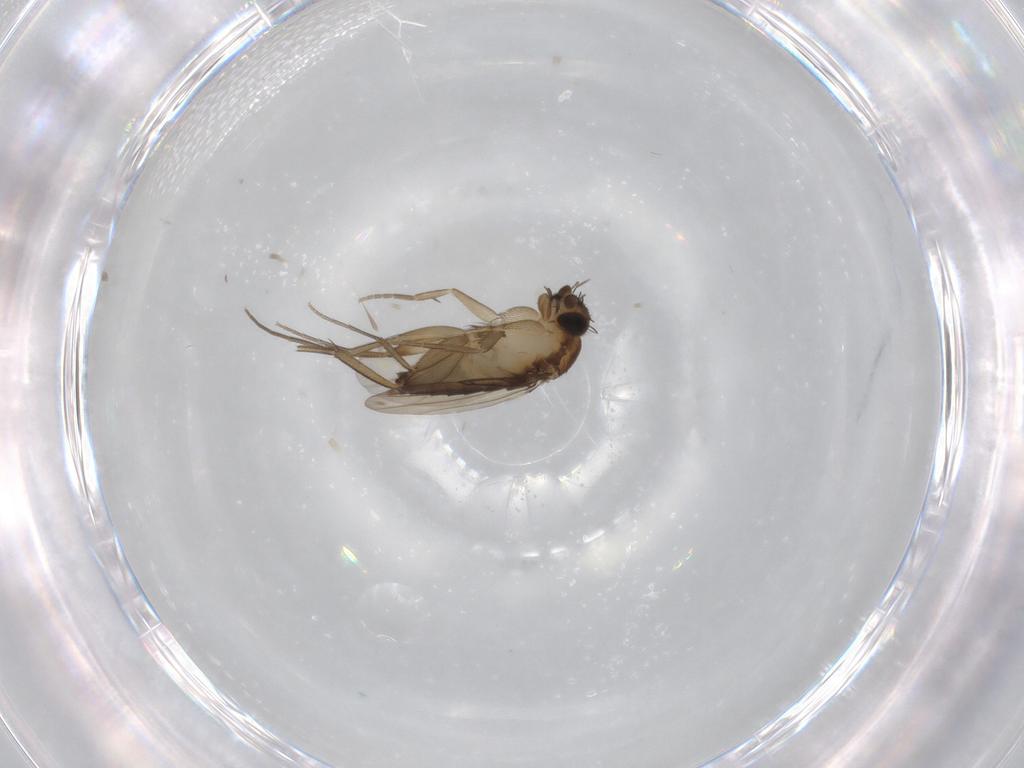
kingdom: Animalia
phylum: Arthropoda
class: Insecta
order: Diptera
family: Phoridae
